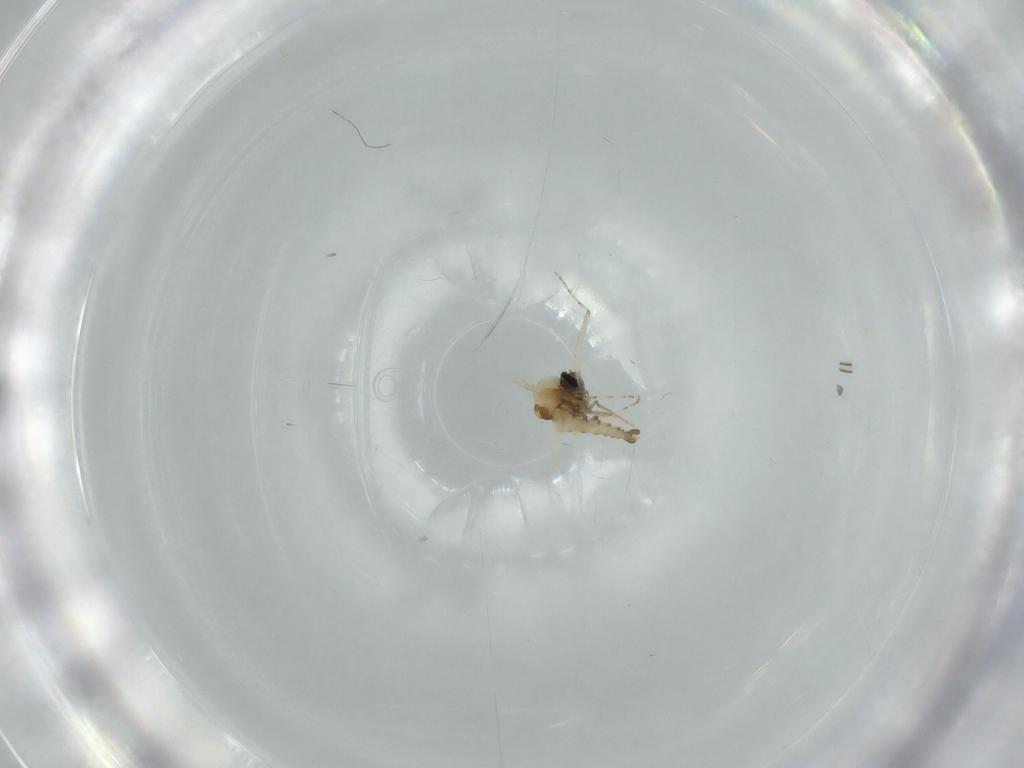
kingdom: Animalia
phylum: Arthropoda
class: Insecta
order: Diptera
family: Sciaridae
